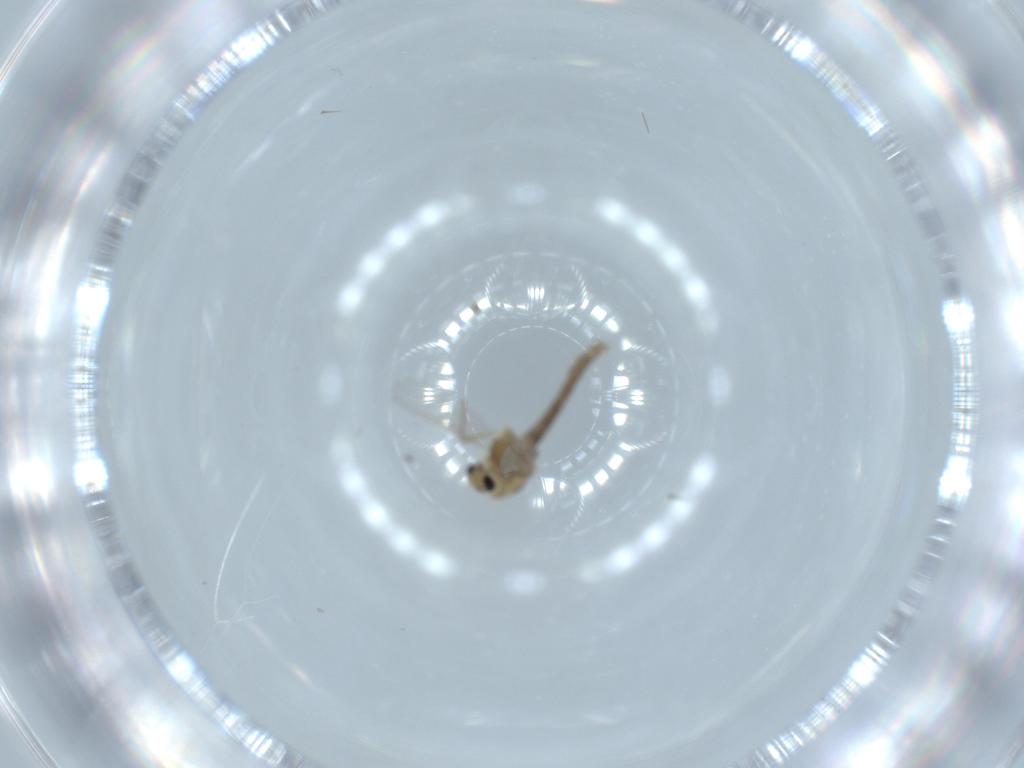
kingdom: Animalia
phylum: Arthropoda
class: Insecta
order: Diptera
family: Chironomidae
